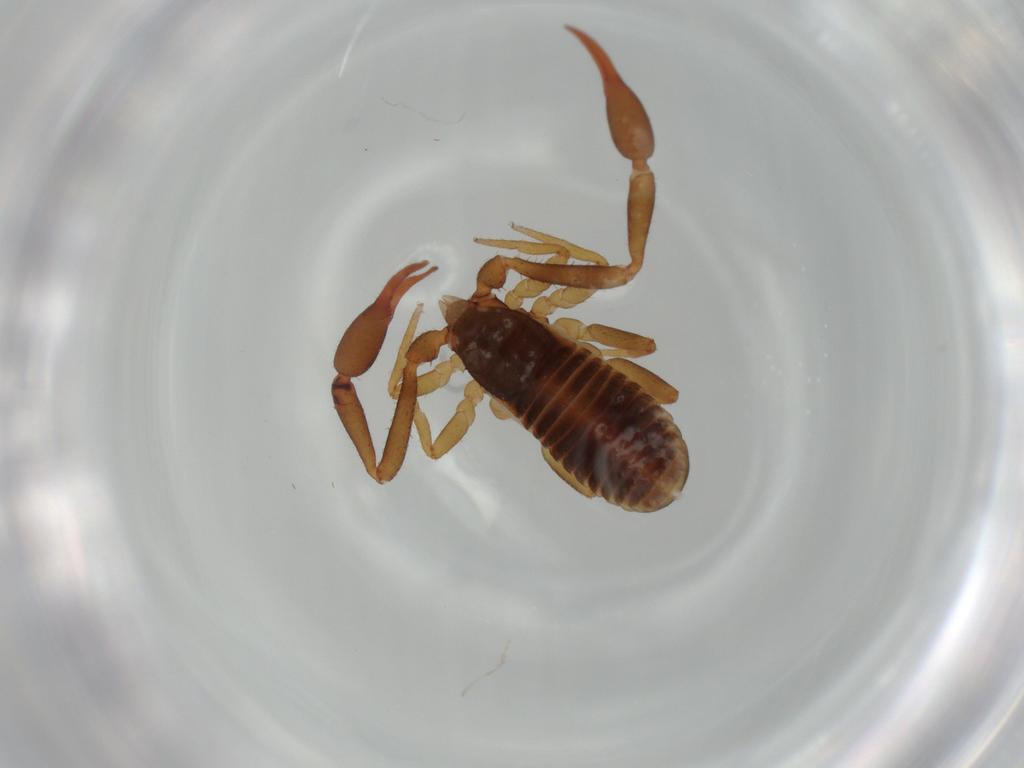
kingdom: Animalia
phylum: Arthropoda
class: Arachnida
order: Pseudoscorpiones
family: Withiidae
